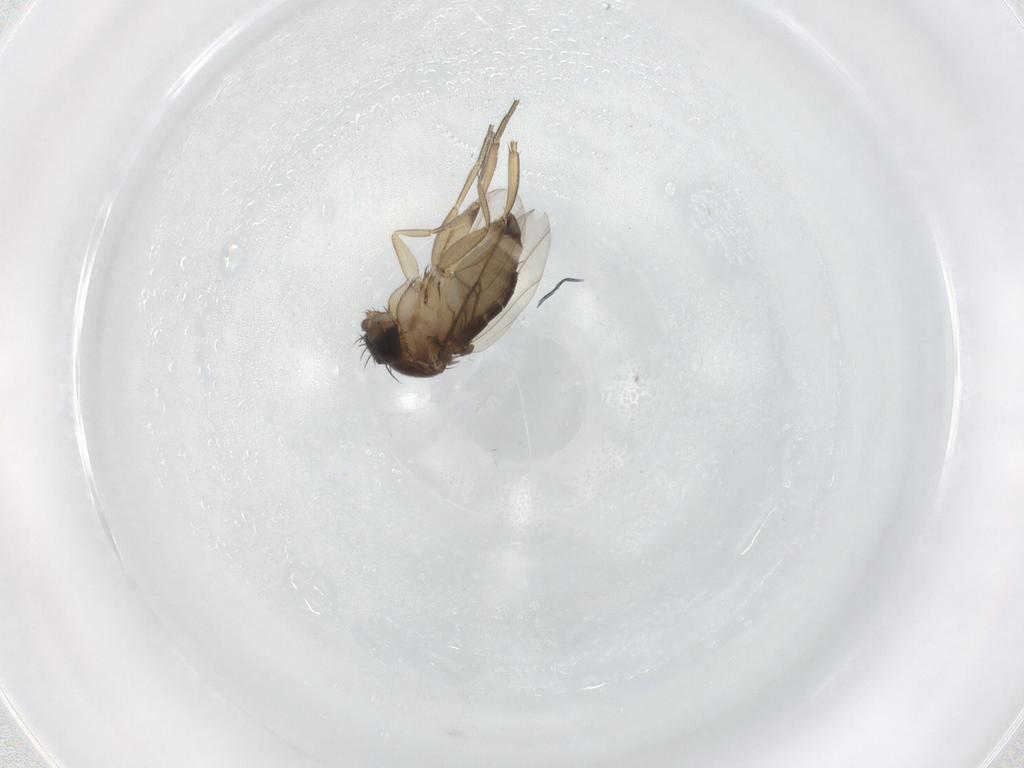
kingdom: Animalia
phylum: Arthropoda
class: Insecta
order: Diptera
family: Phoridae
